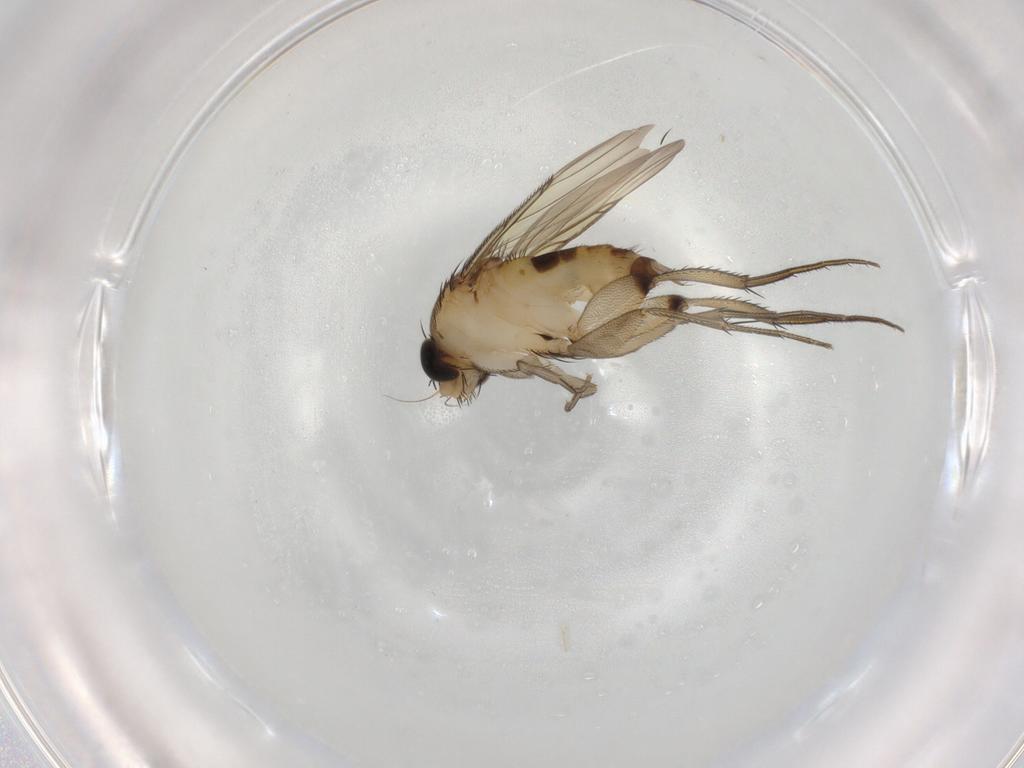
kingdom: Animalia
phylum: Arthropoda
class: Insecta
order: Diptera
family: Phoridae
